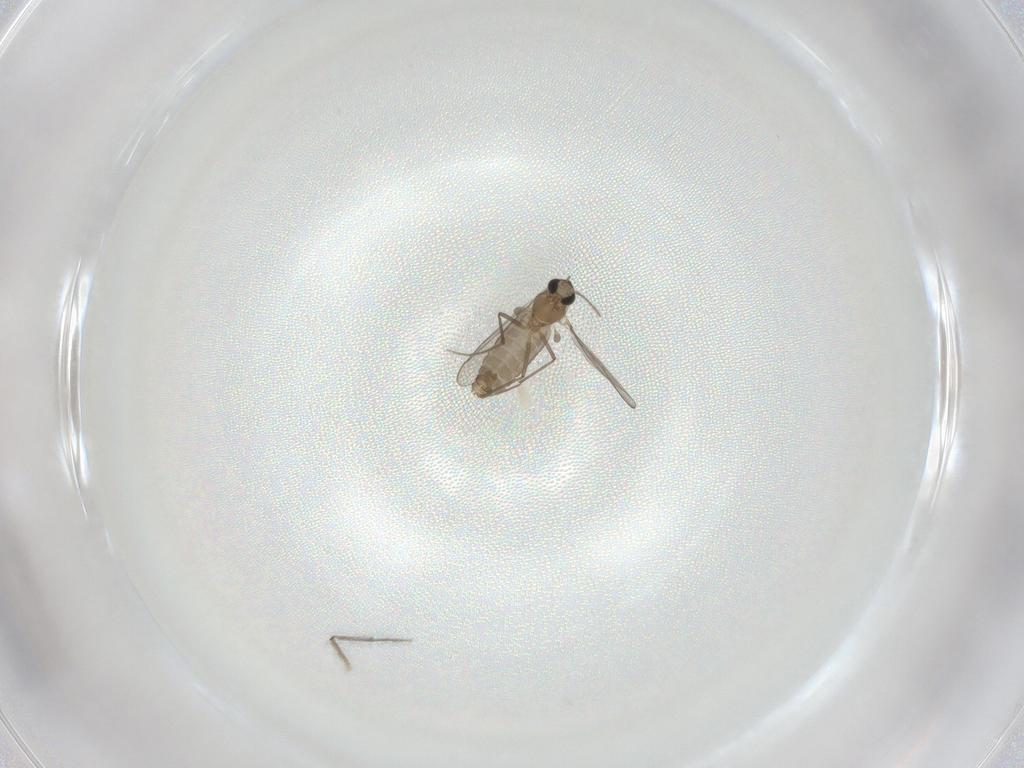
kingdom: Animalia
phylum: Arthropoda
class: Insecta
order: Diptera
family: Chironomidae
